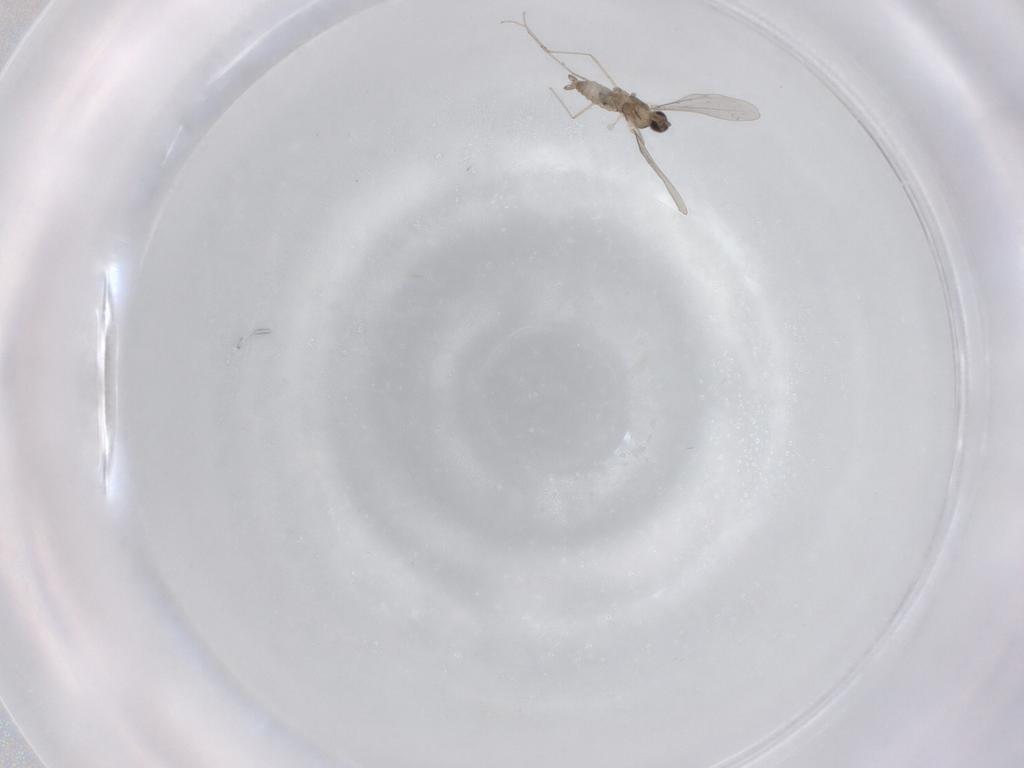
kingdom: Animalia
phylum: Arthropoda
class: Insecta
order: Diptera
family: Cecidomyiidae
